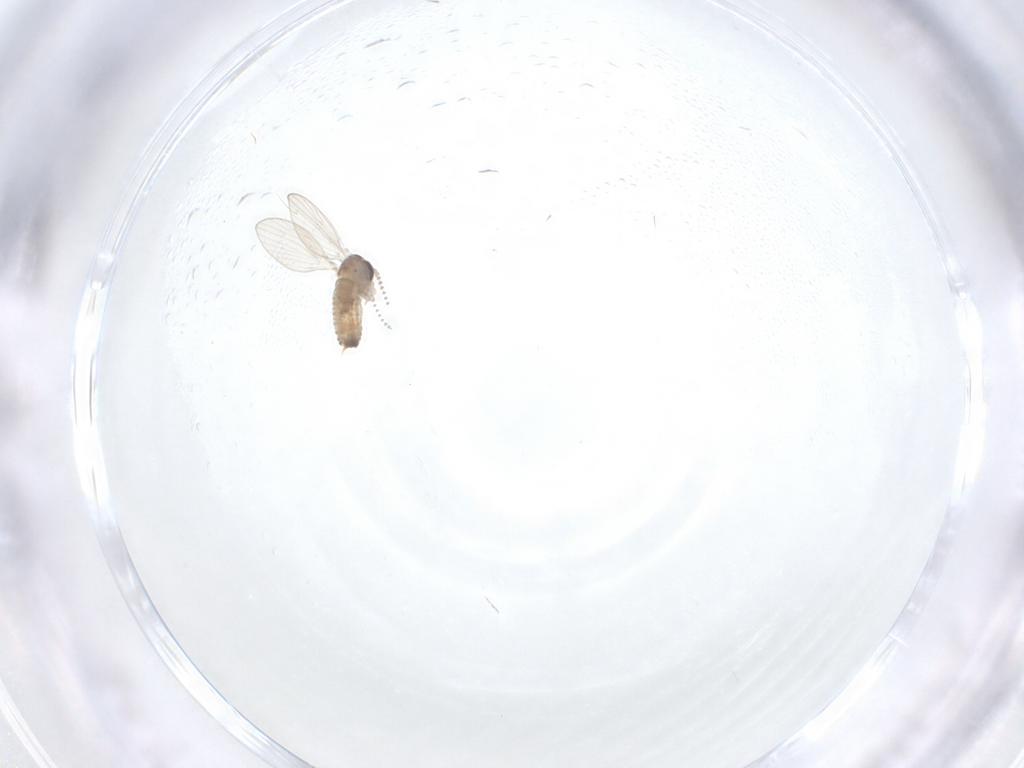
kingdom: Animalia
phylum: Arthropoda
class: Insecta
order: Diptera
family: Psychodidae
